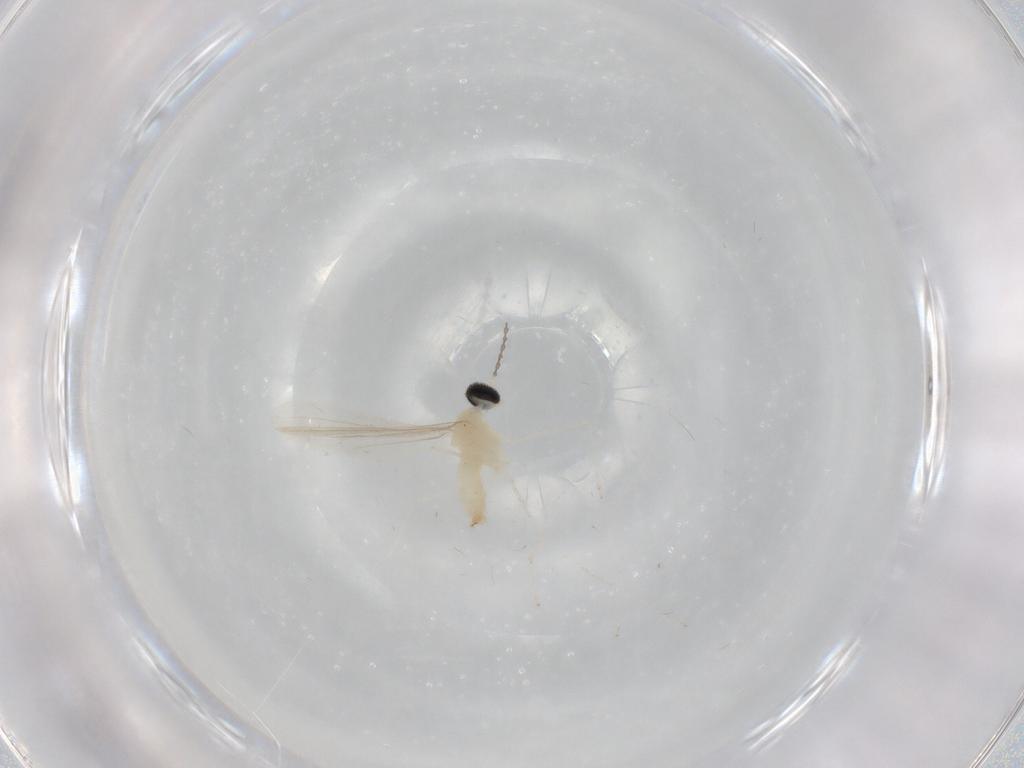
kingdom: Animalia
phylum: Arthropoda
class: Insecta
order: Diptera
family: Cecidomyiidae
